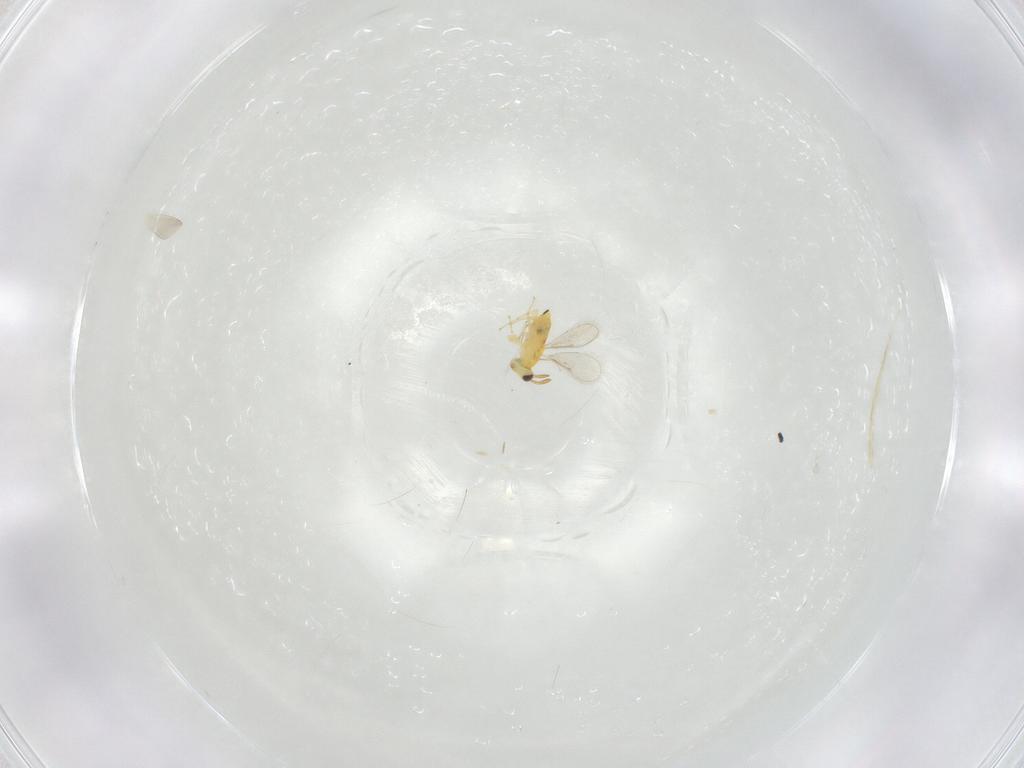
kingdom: Animalia
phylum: Arthropoda
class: Insecta
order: Hymenoptera
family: Aphelinidae
